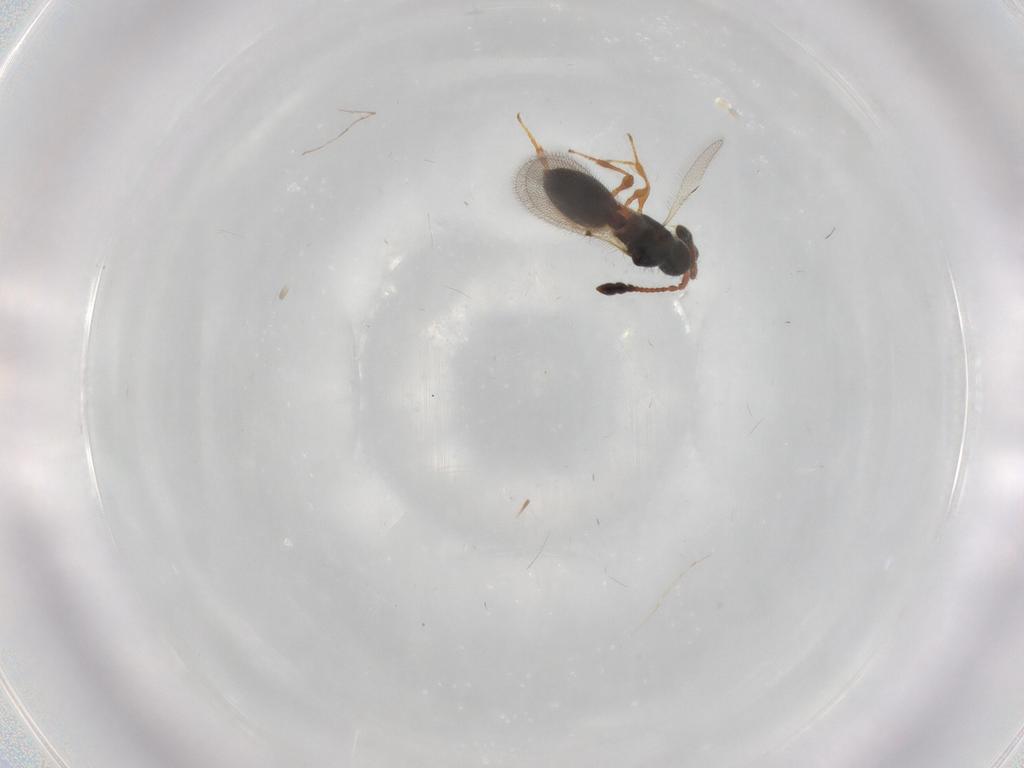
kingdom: Animalia
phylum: Arthropoda
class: Insecta
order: Hymenoptera
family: Diapriidae
